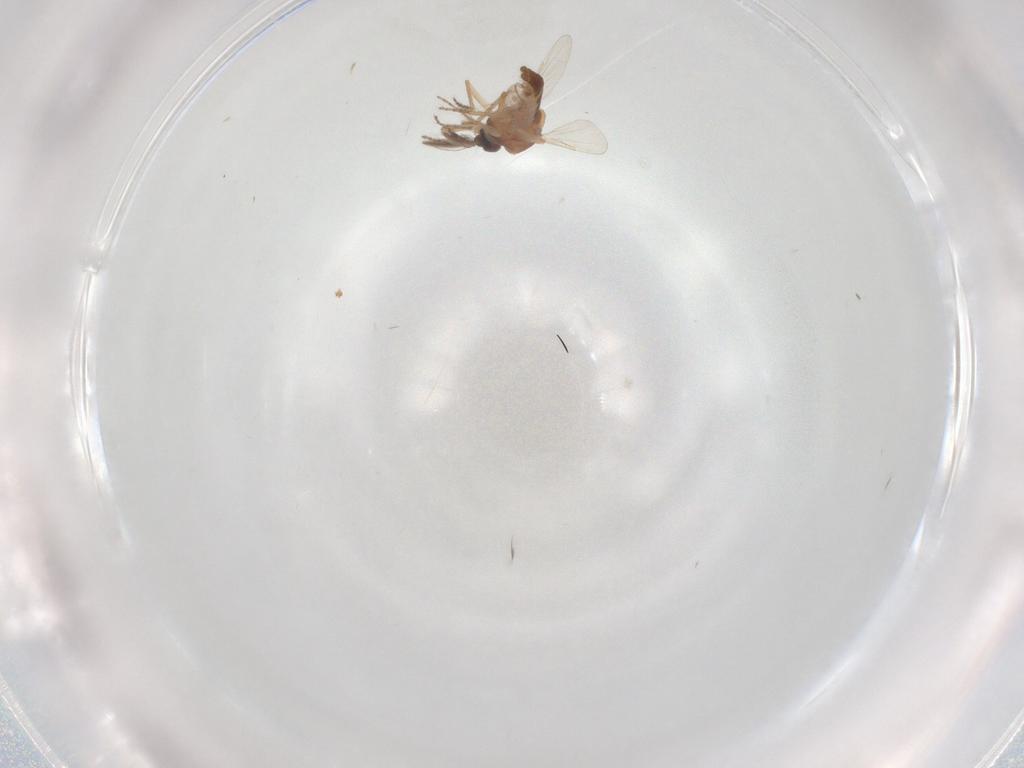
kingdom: Animalia
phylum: Arthropoda
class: Insecta
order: Diptera
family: Ceratopogonidae
